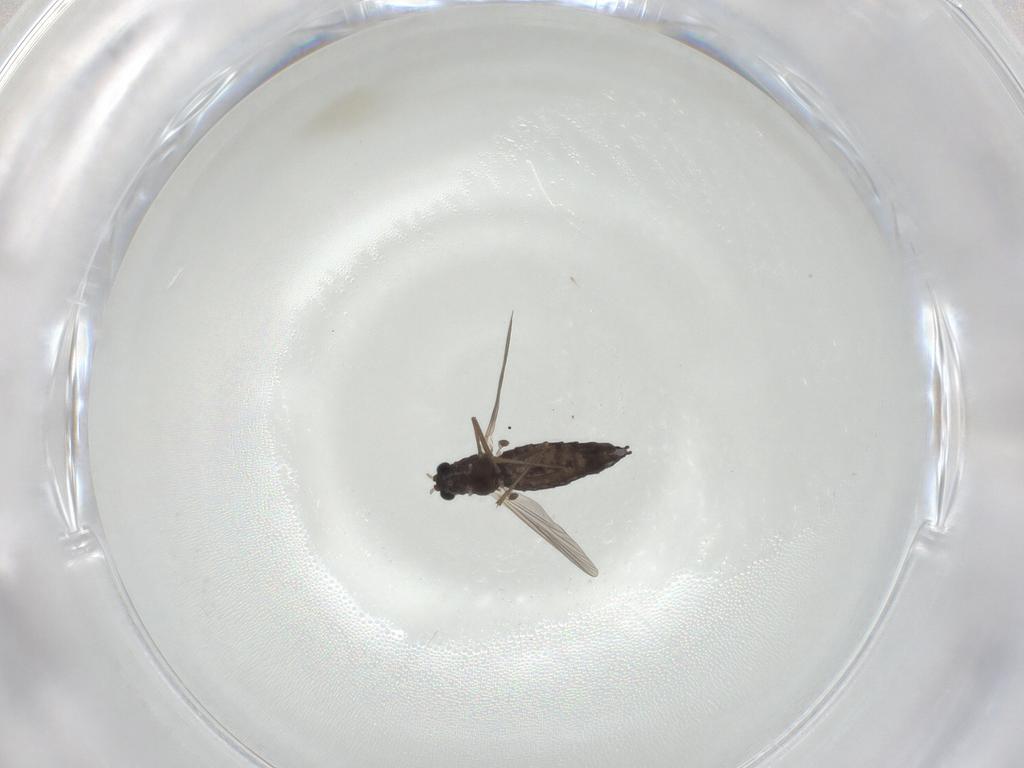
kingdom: Animalia
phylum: Arthropoda
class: Insecta
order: Diptera
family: Chironomidae
